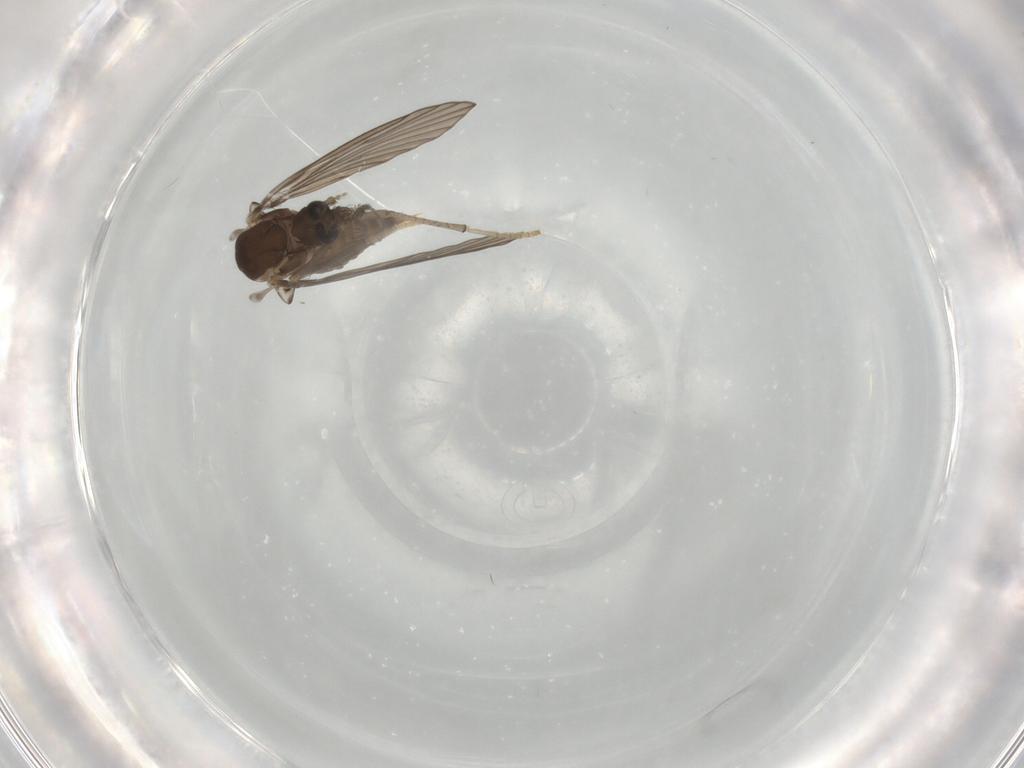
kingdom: Animalia
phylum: Arthropoda
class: Insecta
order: Diptera
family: Psychodidae
